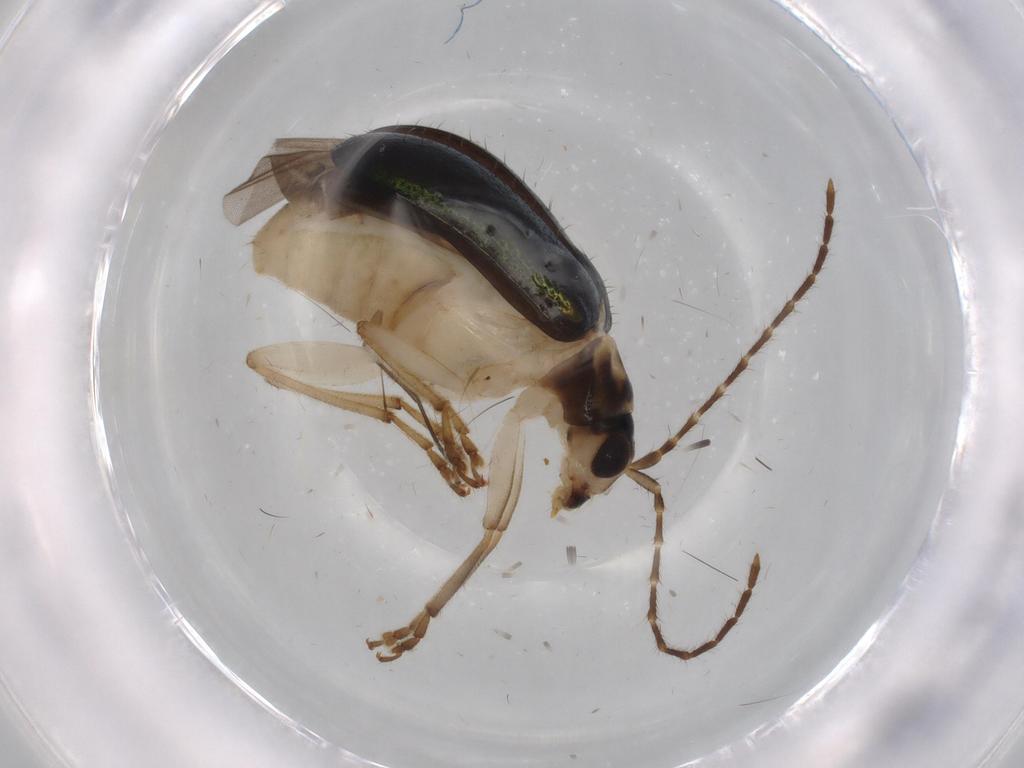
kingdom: Animalia
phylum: Arthropoda
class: Insecta
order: Coleoptera
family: Chrysomelidae
